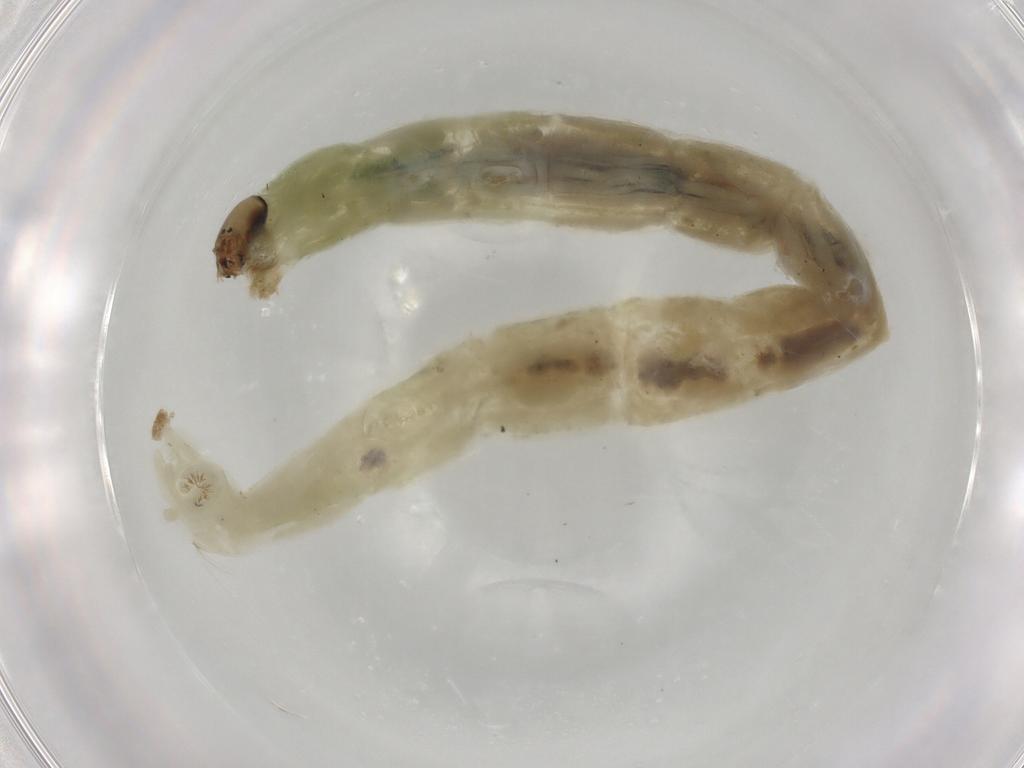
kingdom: Animalia
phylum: Arthropoda
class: Insecta
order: Diptera
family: Chironomidae
